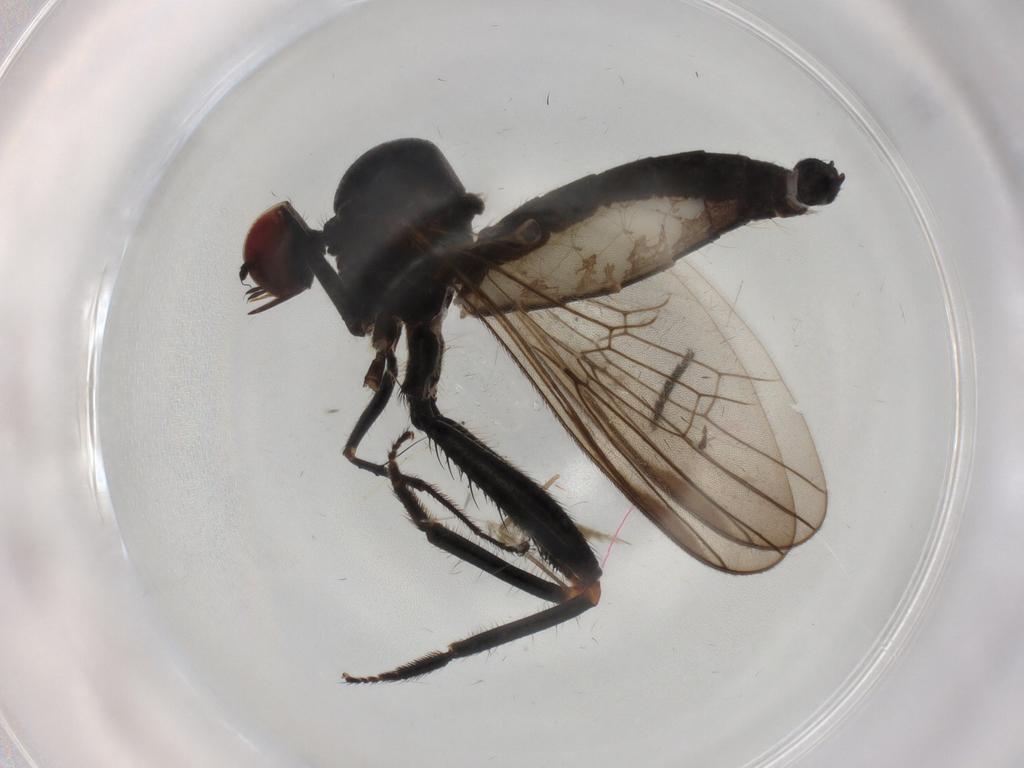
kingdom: Animalia
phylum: Arthropoda
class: Insecta
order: Diptera
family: Hybotidae
